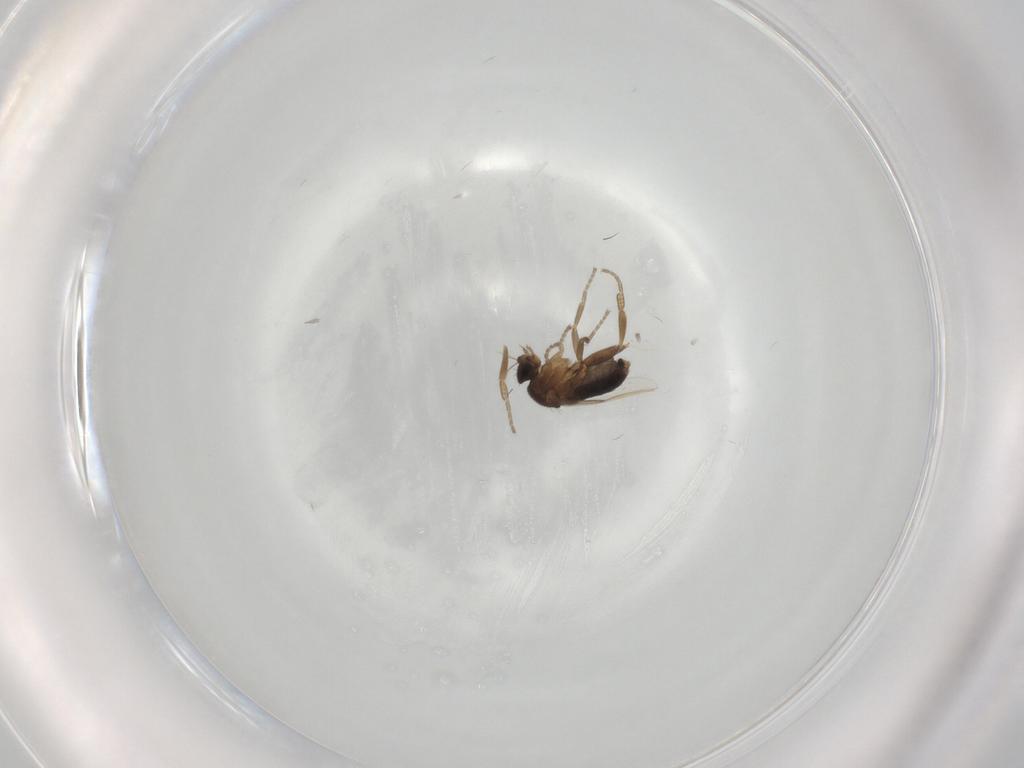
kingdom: Animalia
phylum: Arthropoda
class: Insecta
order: Diptera
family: Phoridae
